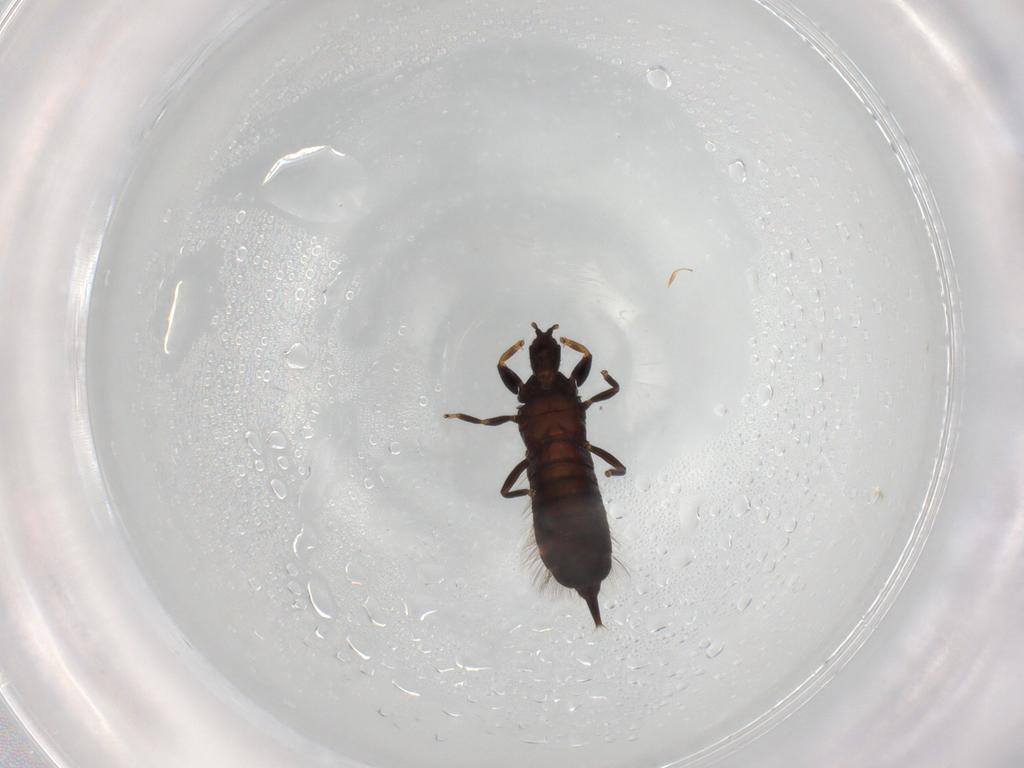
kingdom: Animalia
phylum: Arthropoda
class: Insecta
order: Thysanoptera
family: Phlaeothripidae
